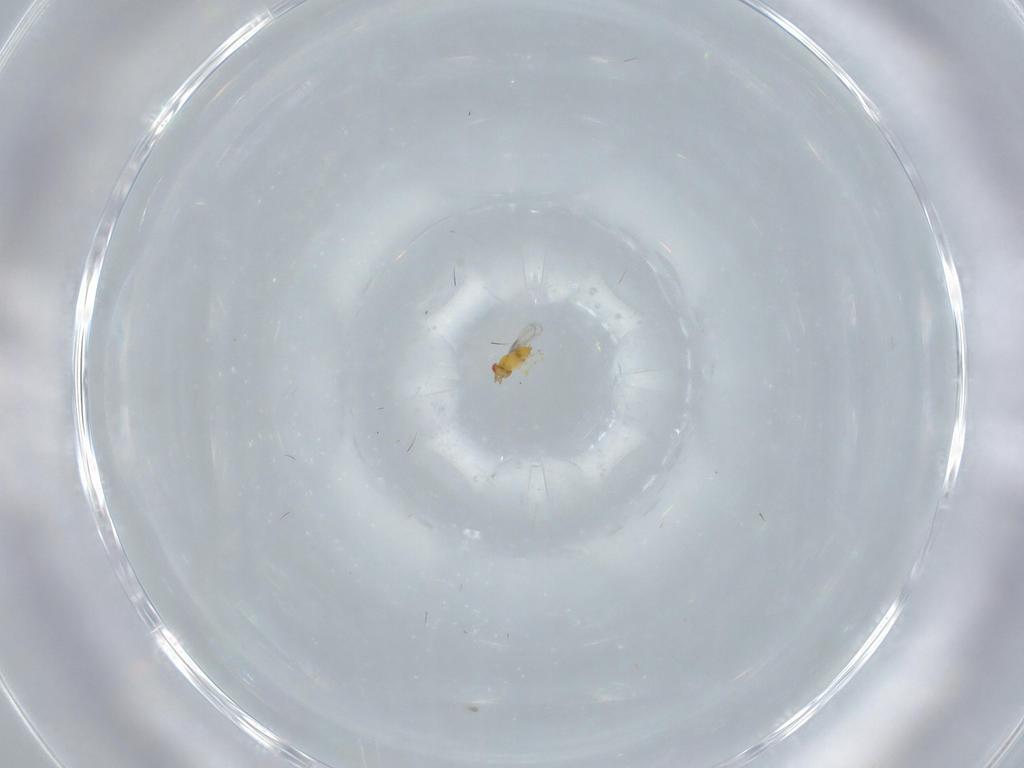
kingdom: Animalia
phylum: Arthropoda
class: Insecta
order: Hymenoptera
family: Trichogrammatidae
